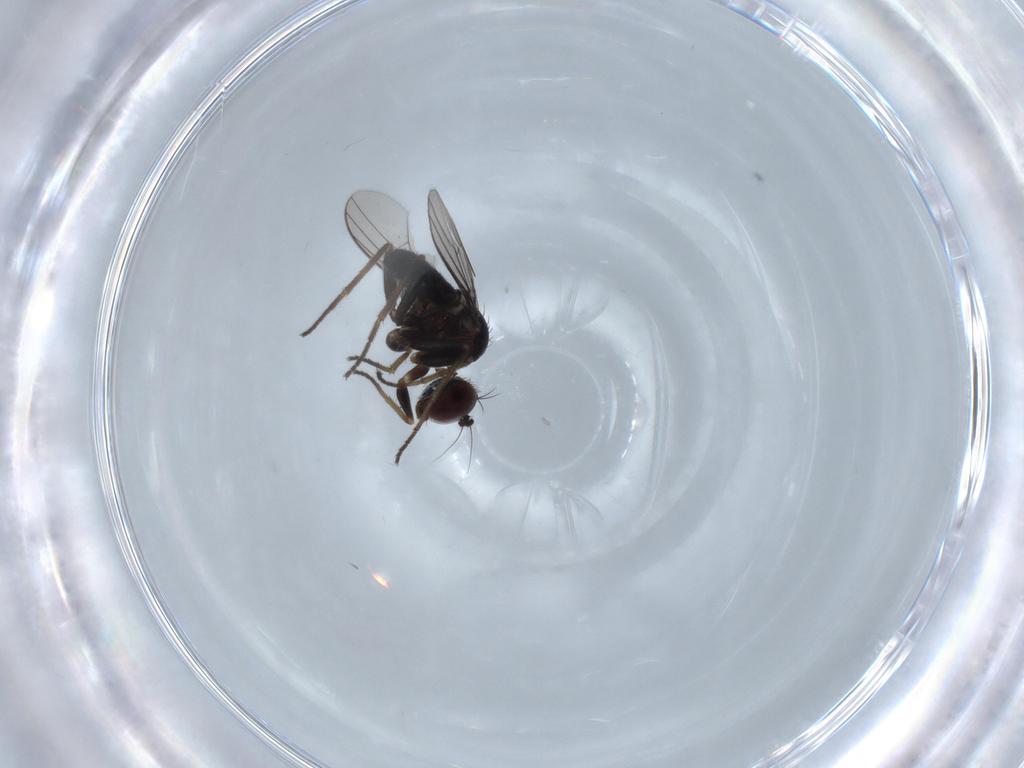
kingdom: Animalia
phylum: Arthropoda
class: Insecta
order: Diptera
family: Dolichopodidae
